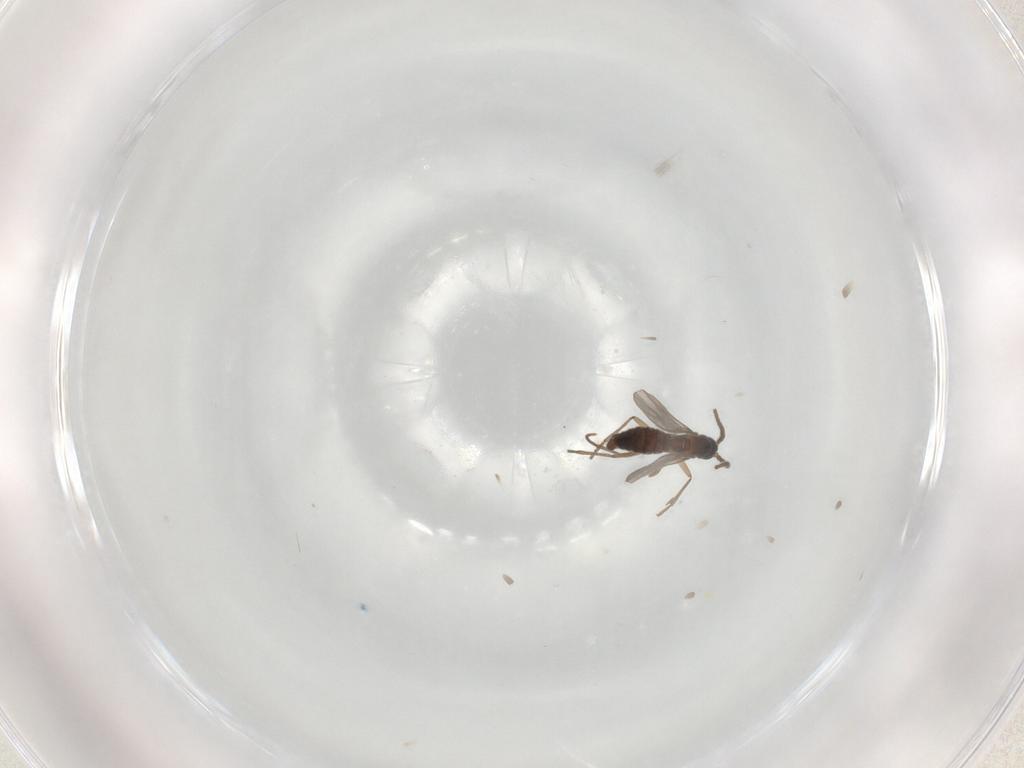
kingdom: Animalia
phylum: Arthropoda
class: Insecta
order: Diptera
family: Sciaridae
